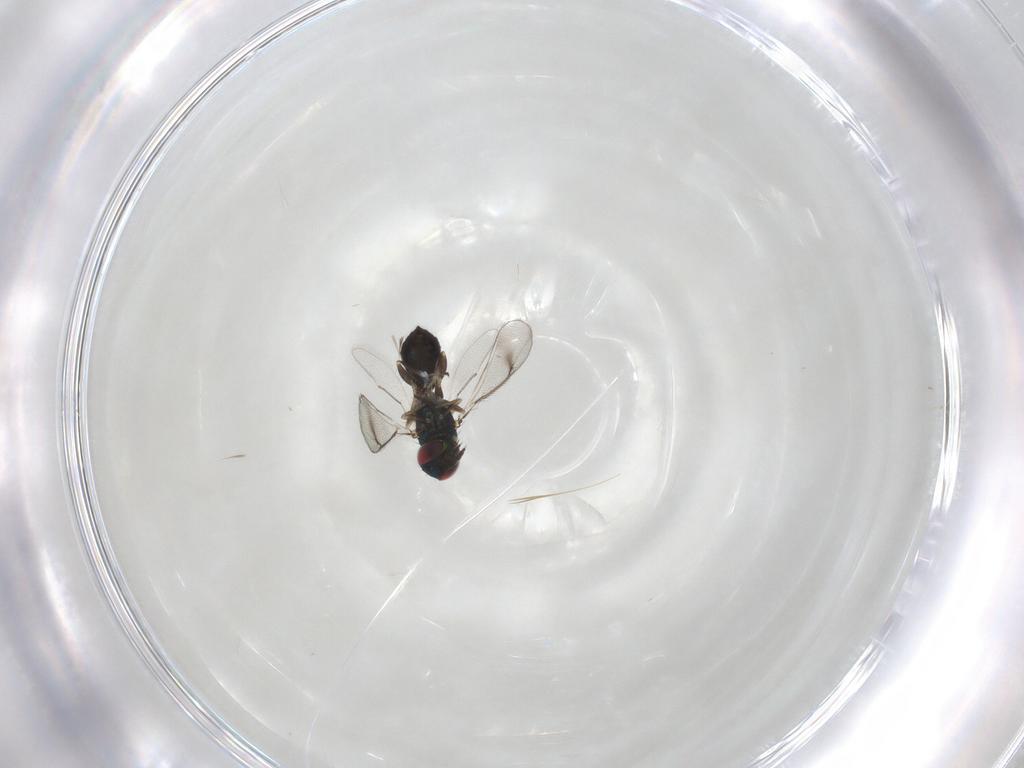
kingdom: Animalia
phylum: Arthropoda
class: Insecta
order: Hymenoptera
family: Eulophidae
